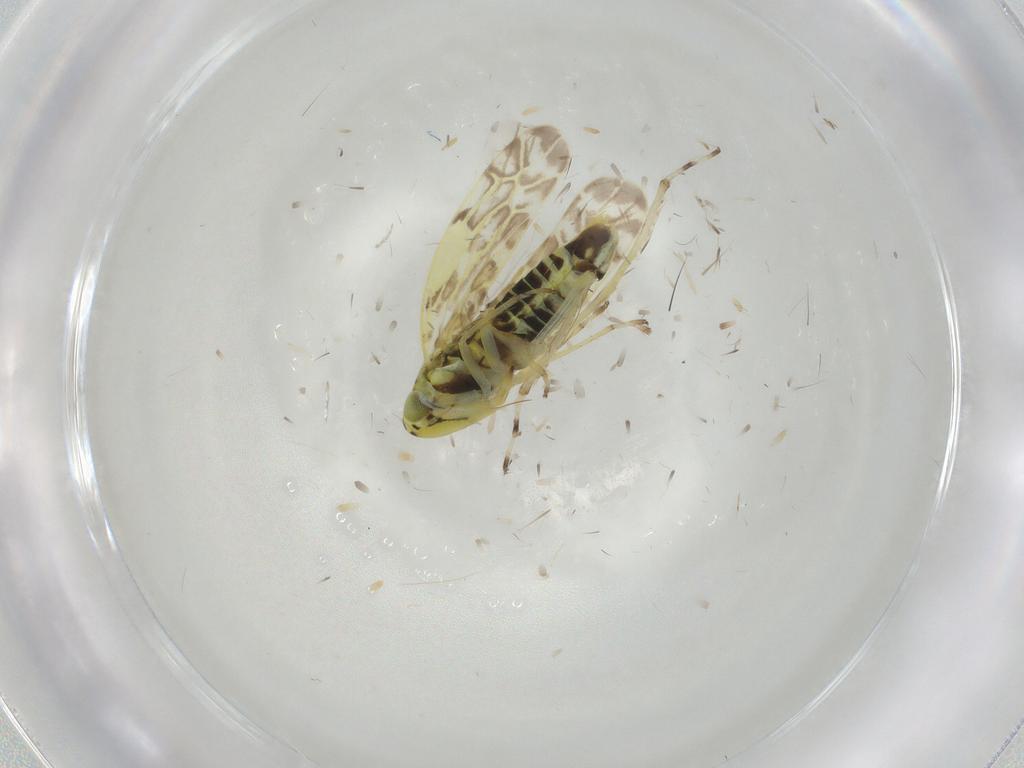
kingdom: Animalia
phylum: Arthropoda
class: Insecta
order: Hemiptera
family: Cicadellidae
